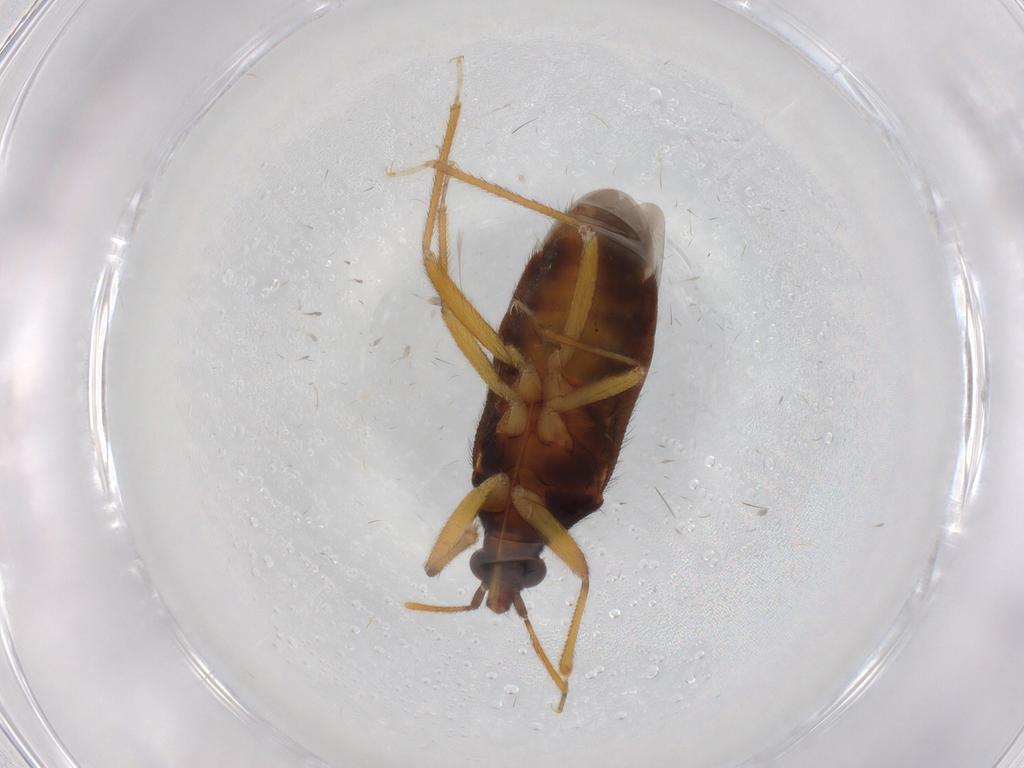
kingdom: Animalia
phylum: Arthropoda
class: Insecta
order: Hemiptera
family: Anthocoridae
